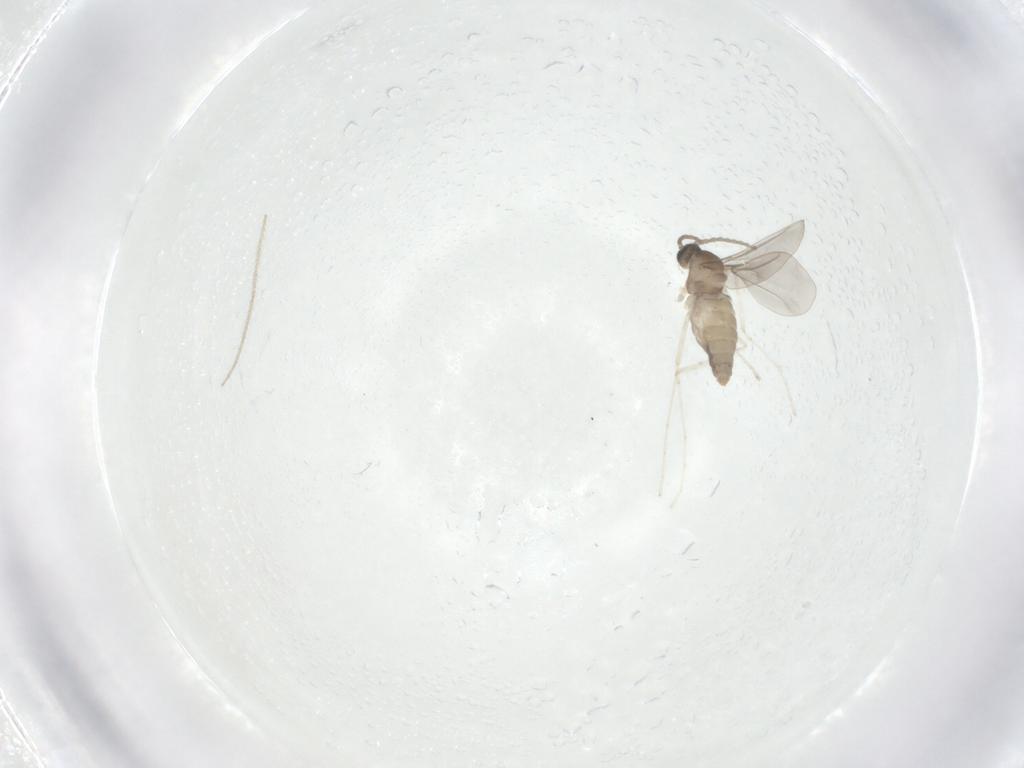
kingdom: Animalia
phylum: Arthropoda
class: Insecta
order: Diptera
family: Cecidomyiidae
